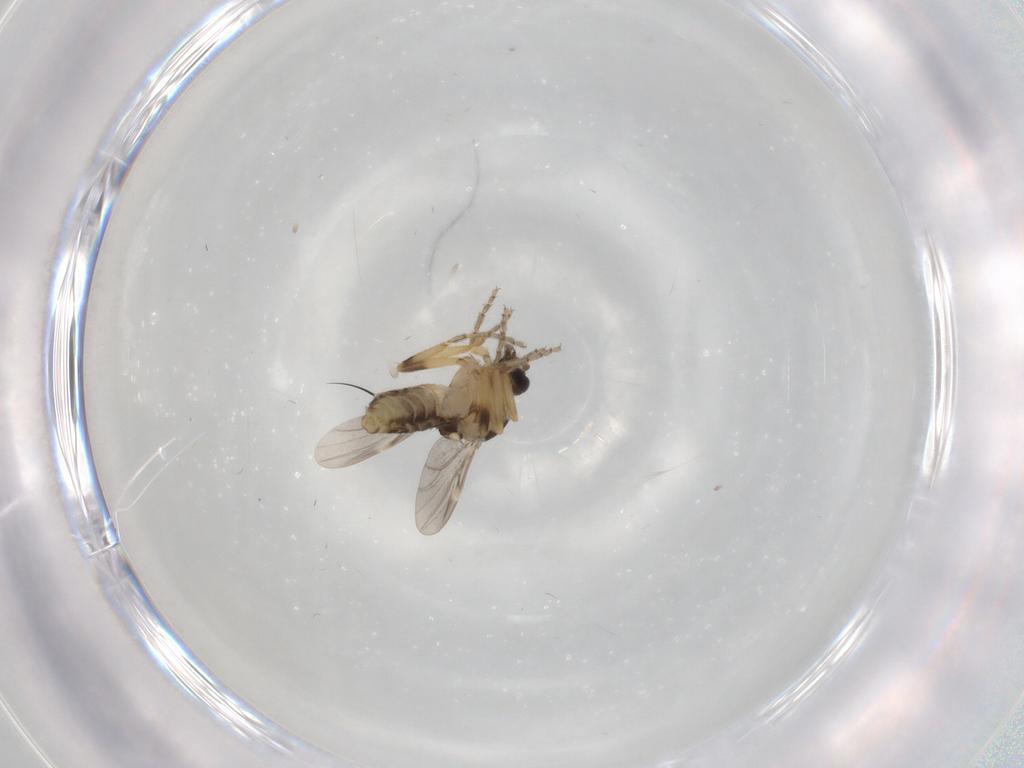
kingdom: Animalia
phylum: Arthropoda
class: Insecta
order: Diptera
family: Ceratopogonidae
